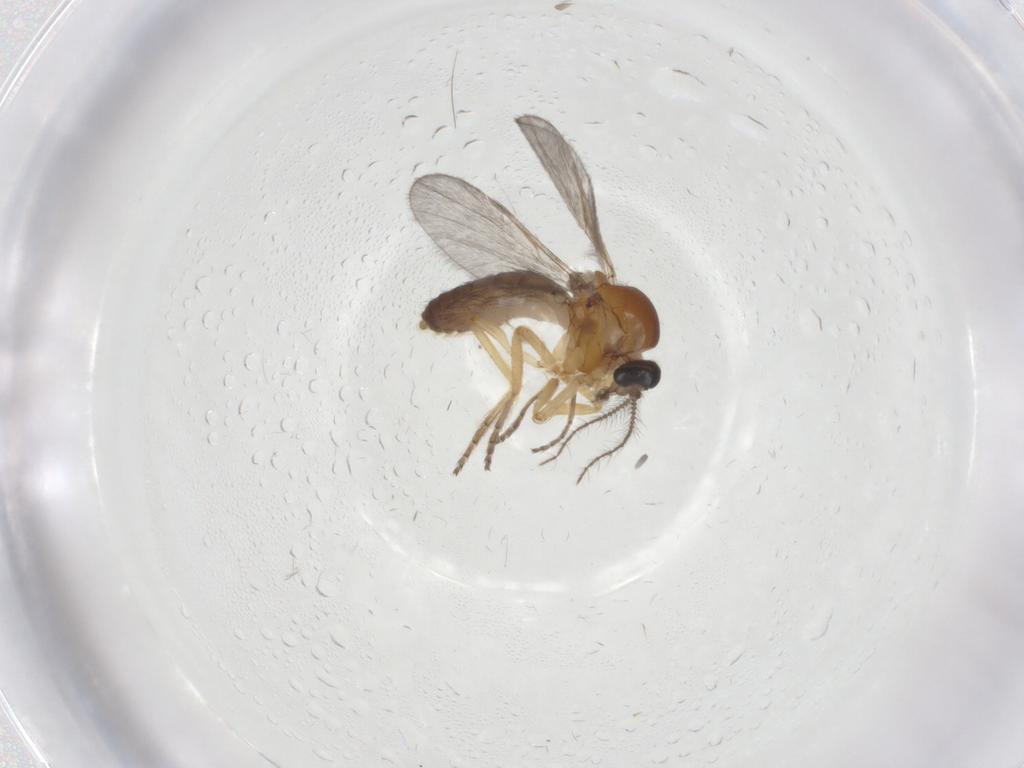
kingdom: Animalia
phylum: Arthropoda
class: Insecta
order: Diptera
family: Ceratopogonidae
